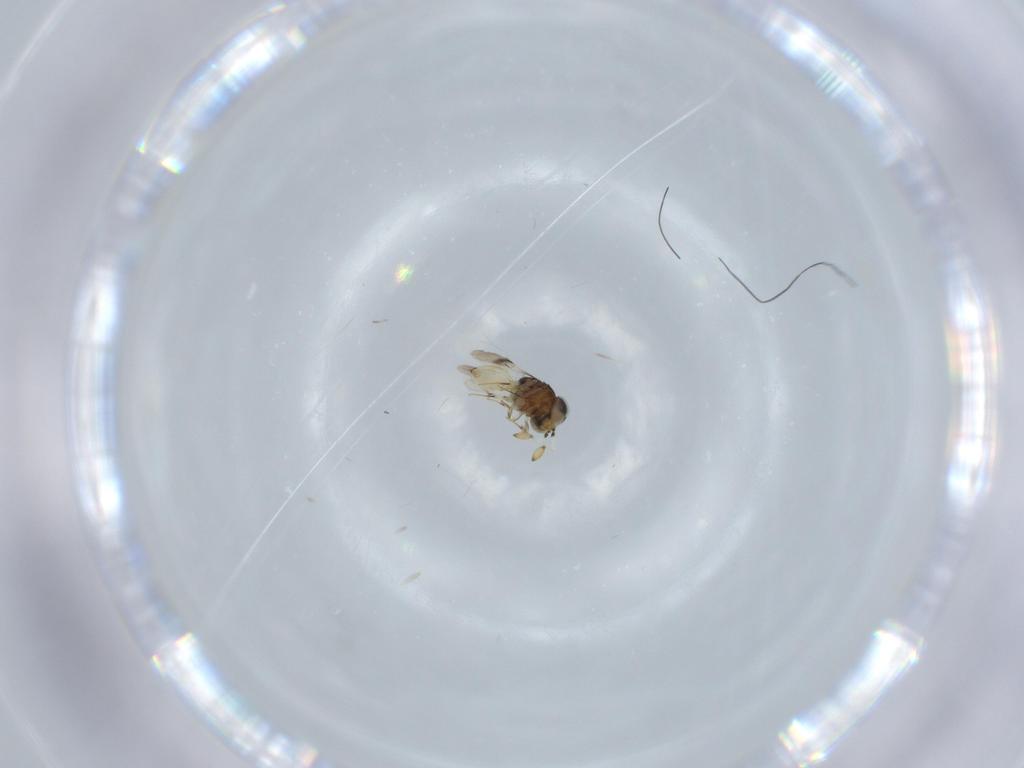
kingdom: Animalia
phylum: Arthropoda
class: Insecta
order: Hymenoptera
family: Scelionidae
